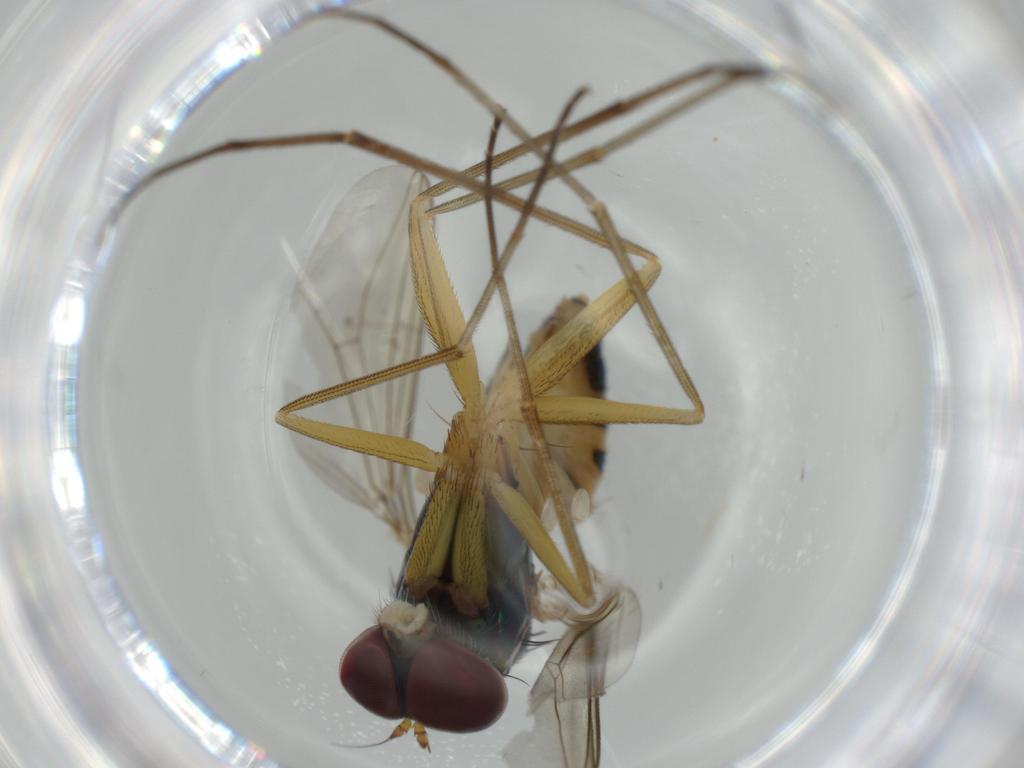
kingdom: Animalia
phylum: Arthropoda
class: Insecta
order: Diptera
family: Dolichopodidae
